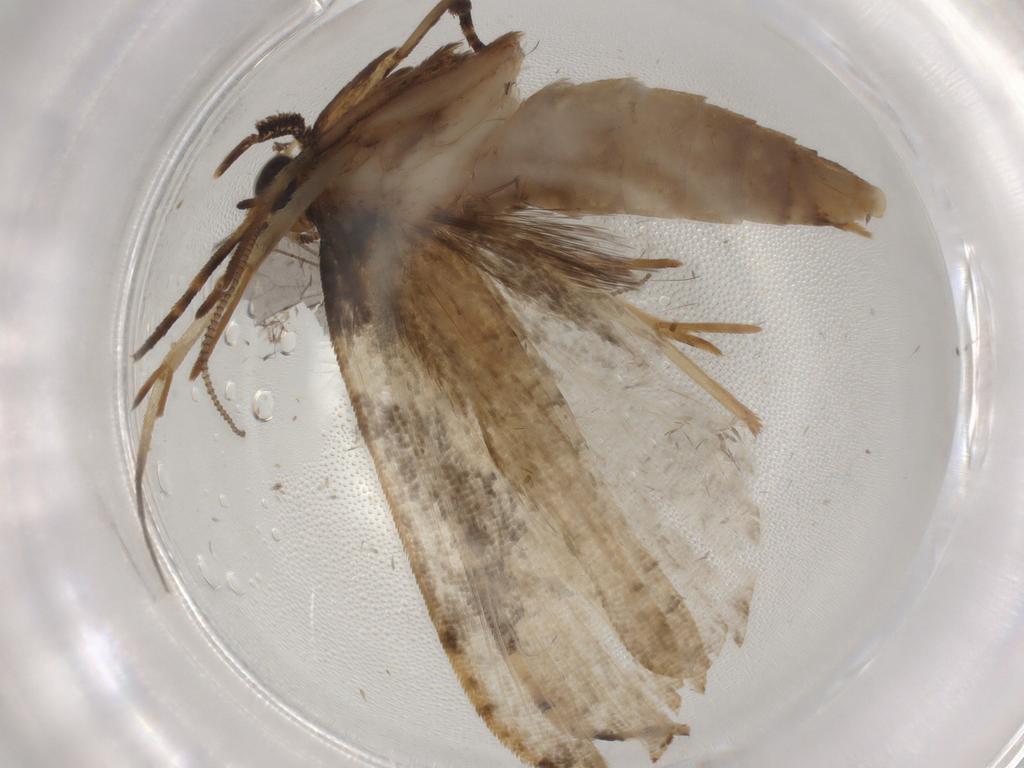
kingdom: Animalia
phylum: Arthropoda
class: Insecta
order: Lepidoptera
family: Tineidae
